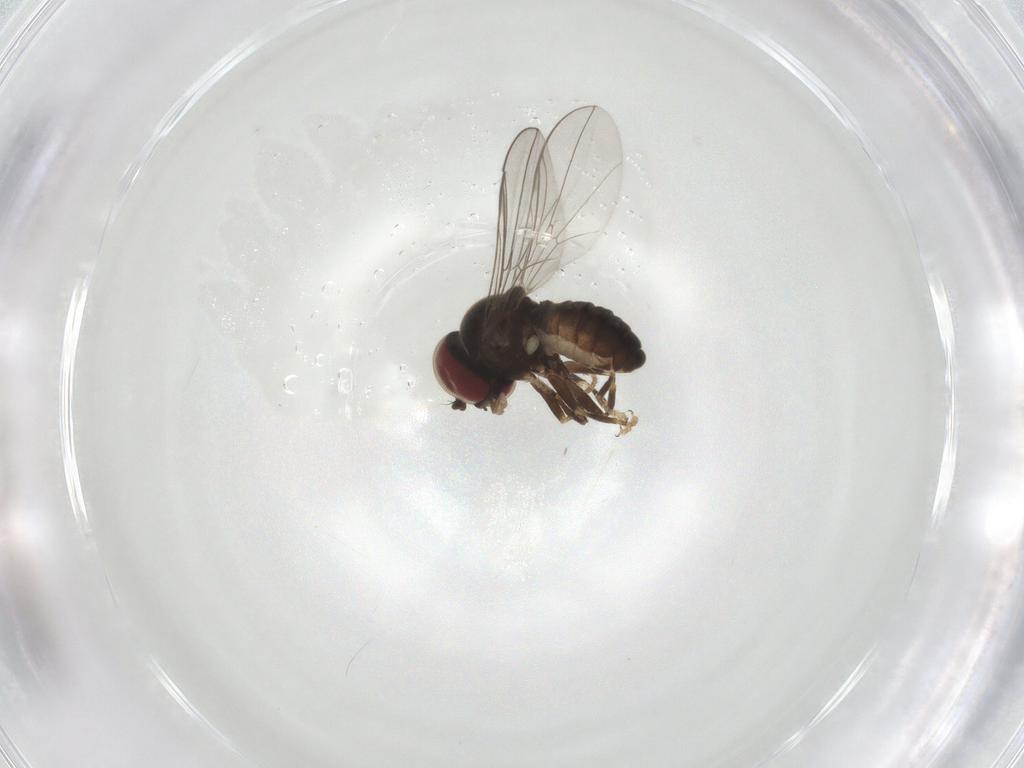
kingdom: Animalia
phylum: Arthropoda
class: Insecta
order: Diptera
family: Pipunculidae
